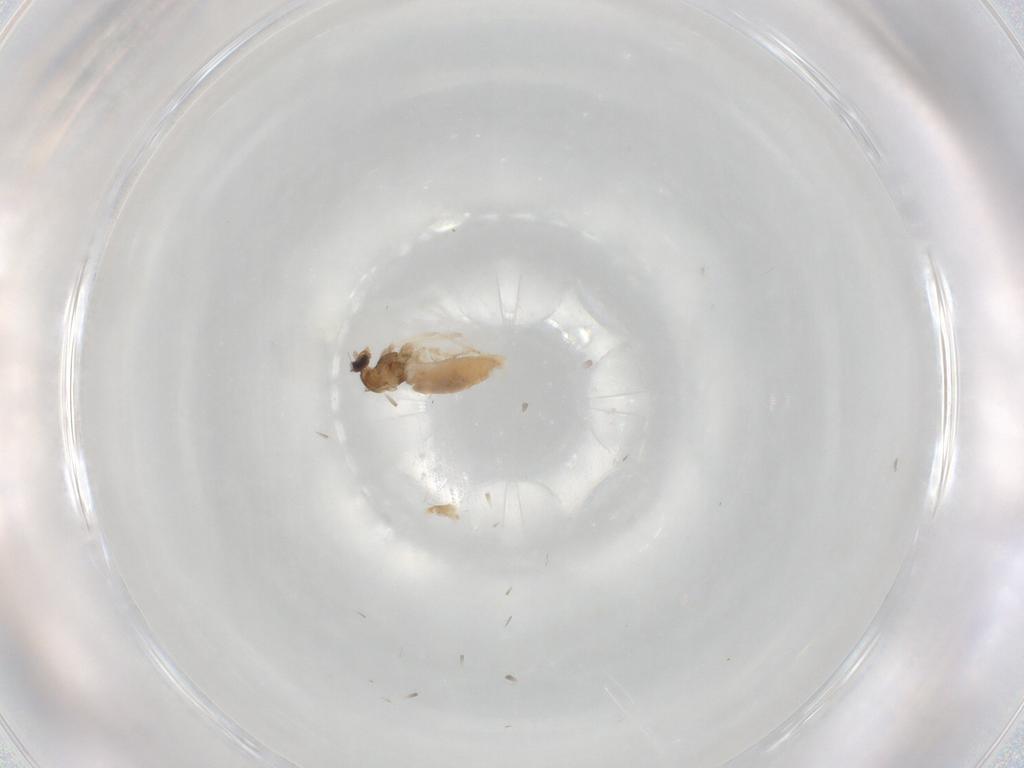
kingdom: Animalia
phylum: Arthropoda
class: Insecta
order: Diptera
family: Cecidomyiidae
